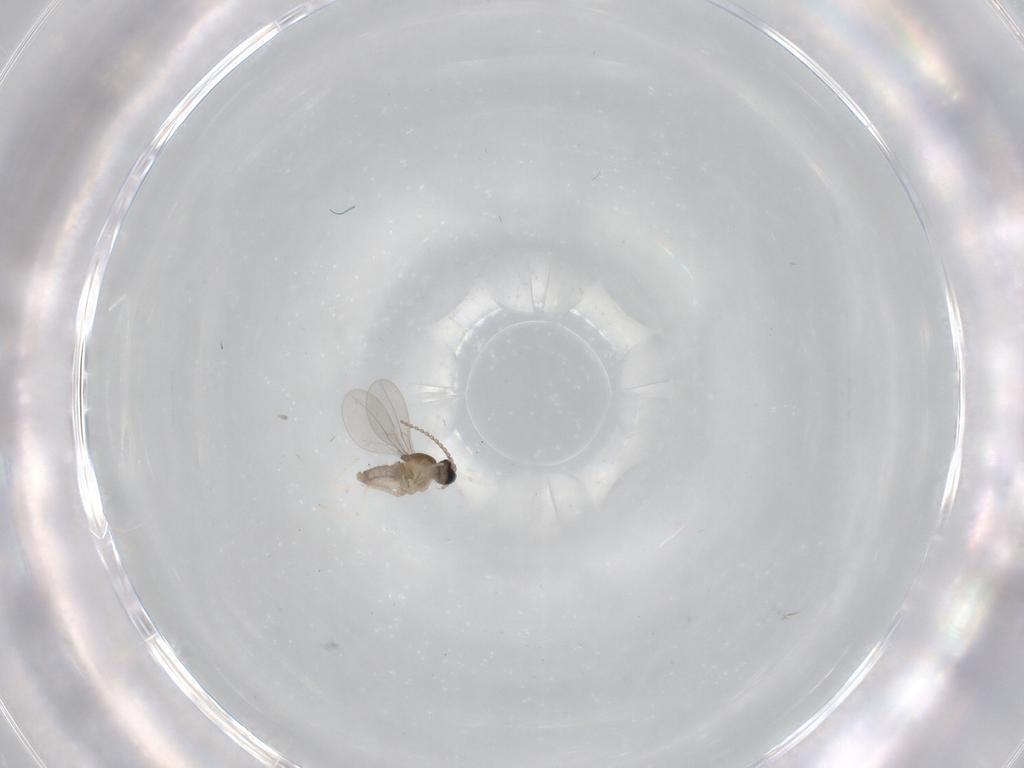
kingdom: Animalia
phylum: Arthropoda
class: Insecta
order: Diptera
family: Cecidomyiidae
